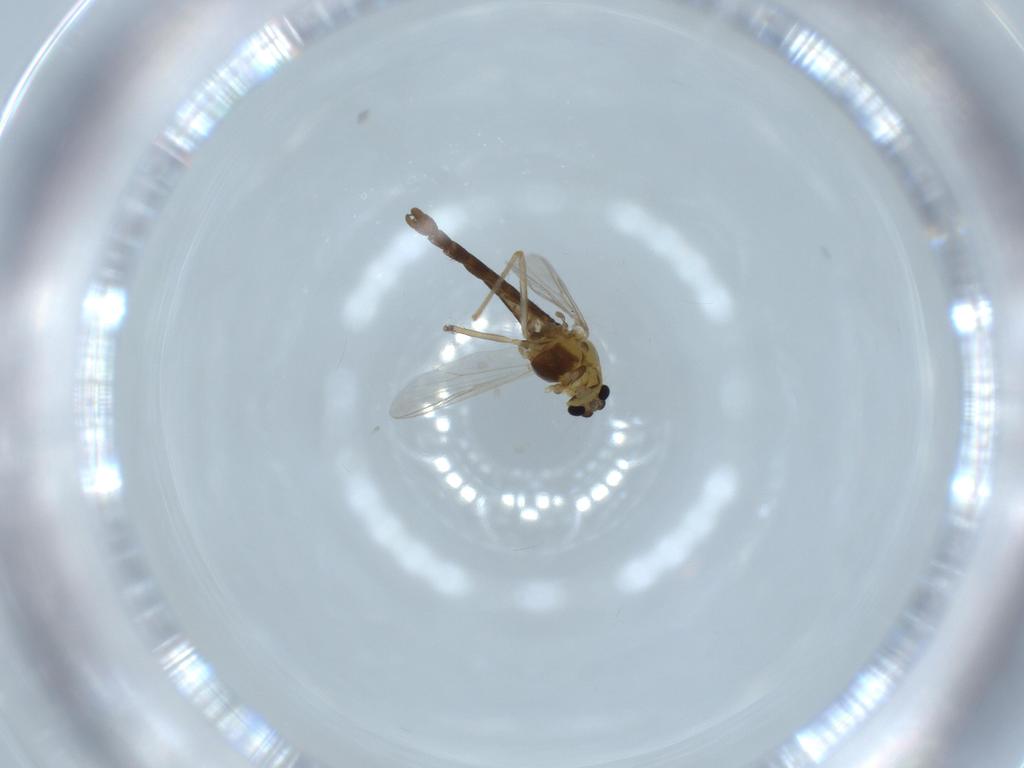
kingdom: Animalia
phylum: Arthropoda
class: Insecta
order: Diptera
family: Chironomidae
